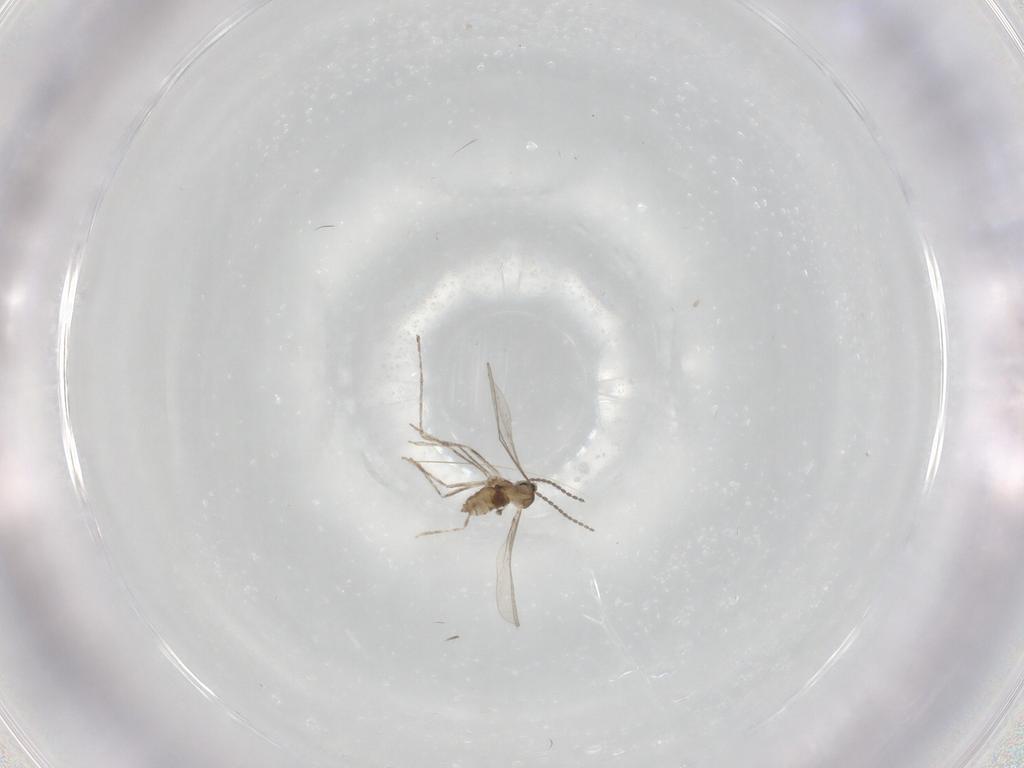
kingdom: Animalia
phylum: Arthropoda
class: Insecta
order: Diptera
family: Cecidomyiidae
